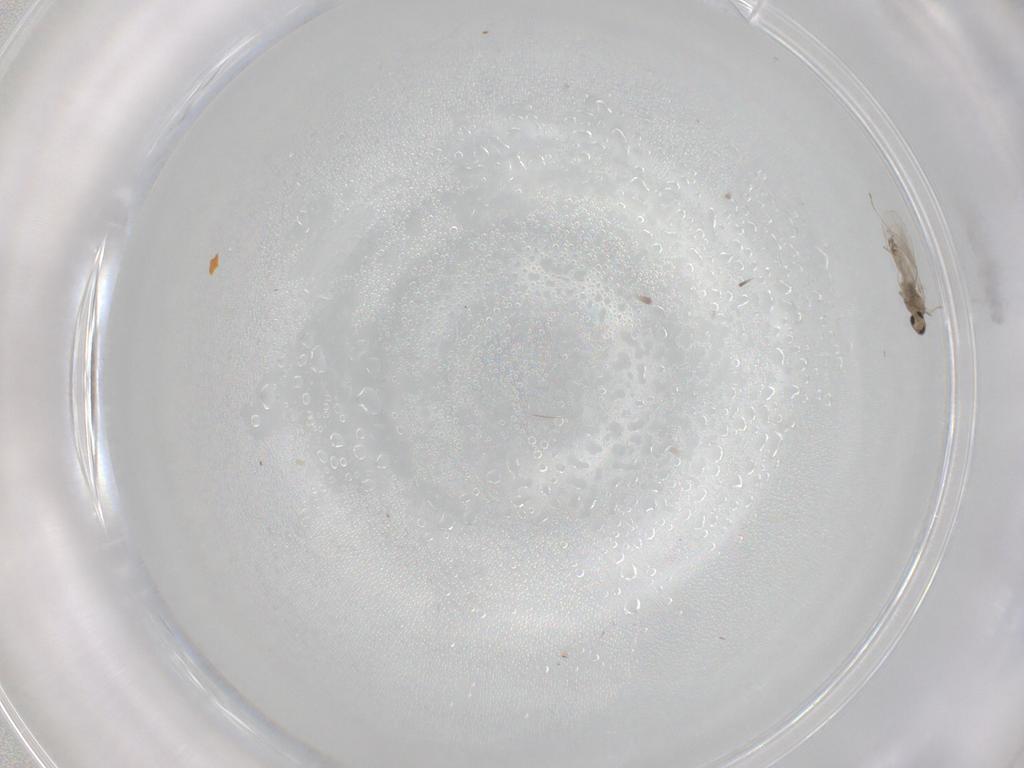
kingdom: Animalia
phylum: Arthropoda
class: Insecta
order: Diptera
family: Cecidomyiidae
